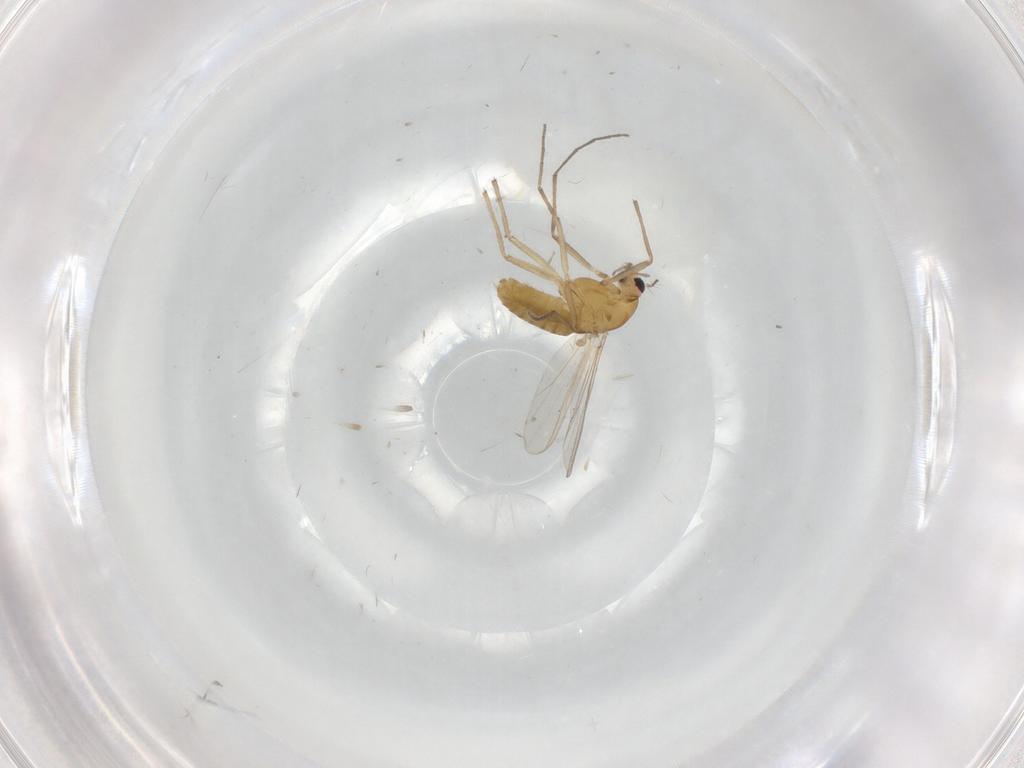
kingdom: Animalia
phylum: Arthropoda
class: Insecta
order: Diptera
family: Chironomidae
